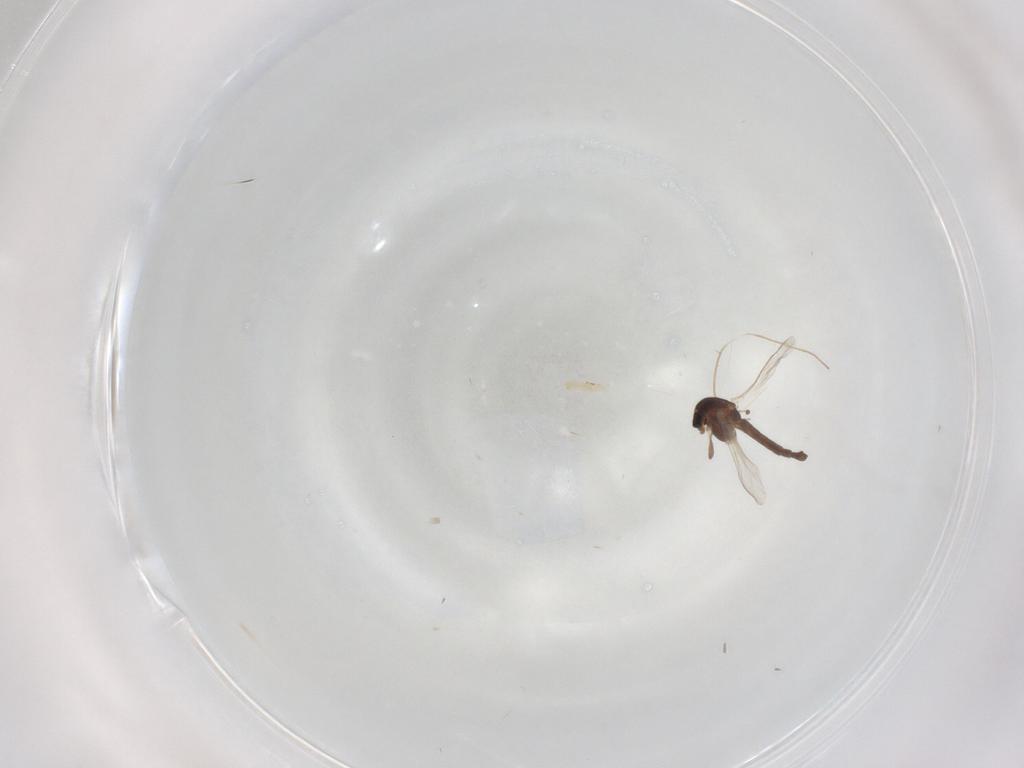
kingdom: Animalia
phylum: Arthropoda
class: Insecta
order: Diptera
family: Chironomidae
